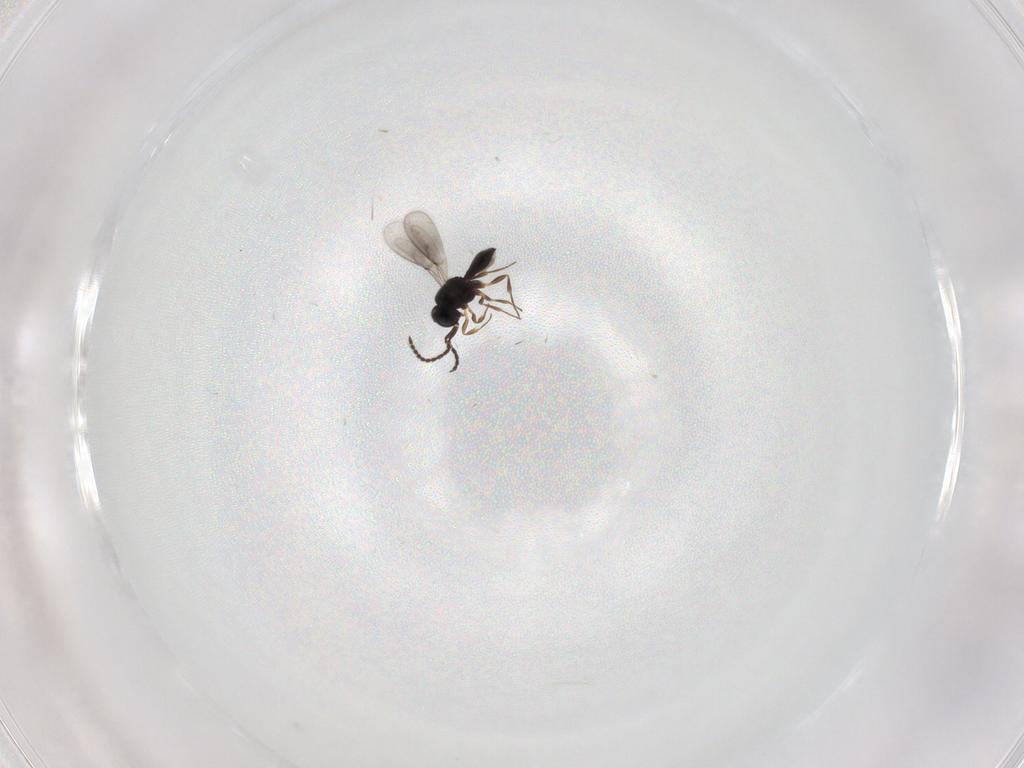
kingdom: Animalia
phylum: Arthropoda
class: Insecta
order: Hymenoptera
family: Scelionidae
